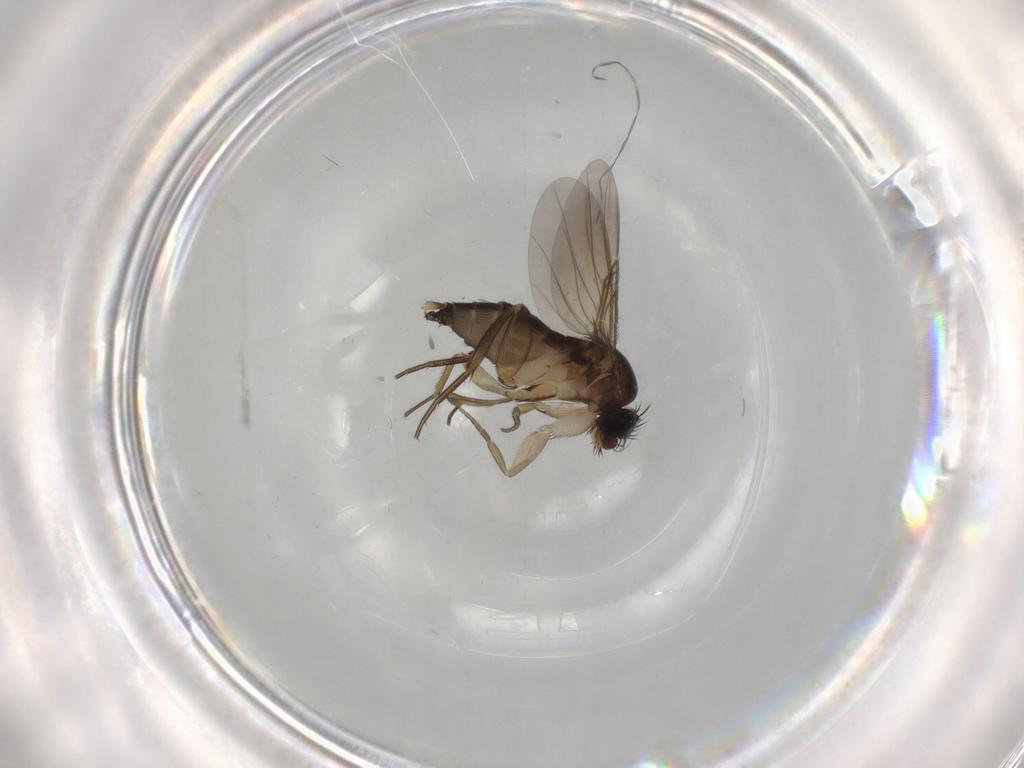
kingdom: Animalia
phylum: Arthropoda
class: Insecta
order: Diptera
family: Phoridae
